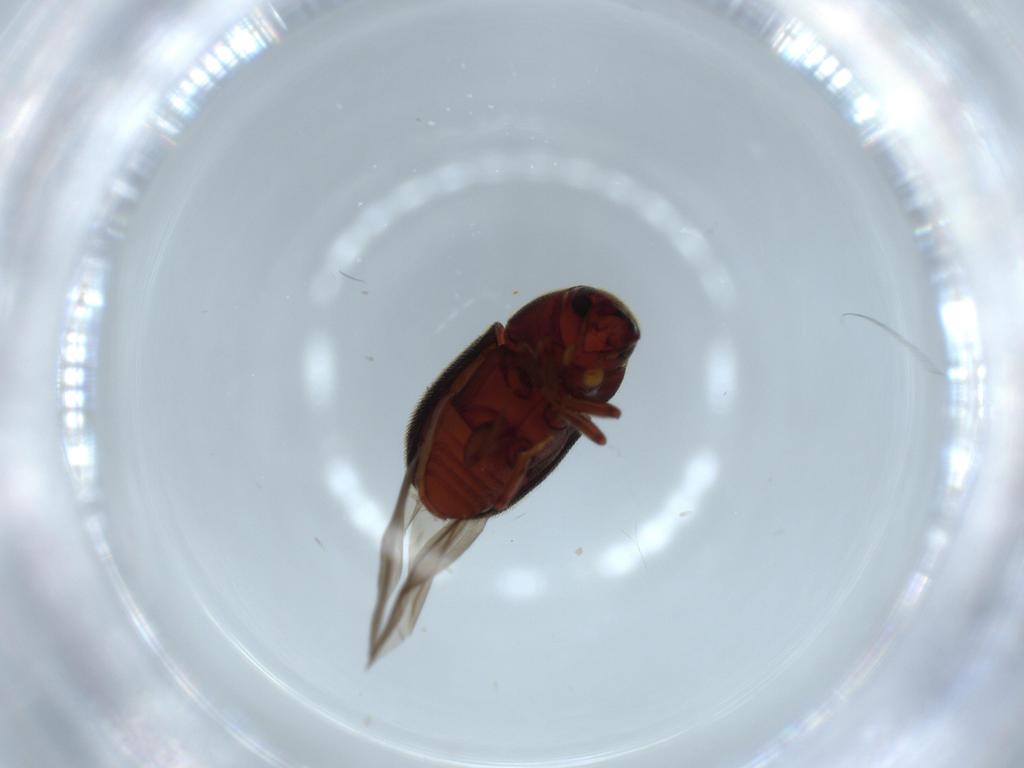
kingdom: Animalia
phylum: Arthropoda
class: Insecta
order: Coleoptera
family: Curculionidae
